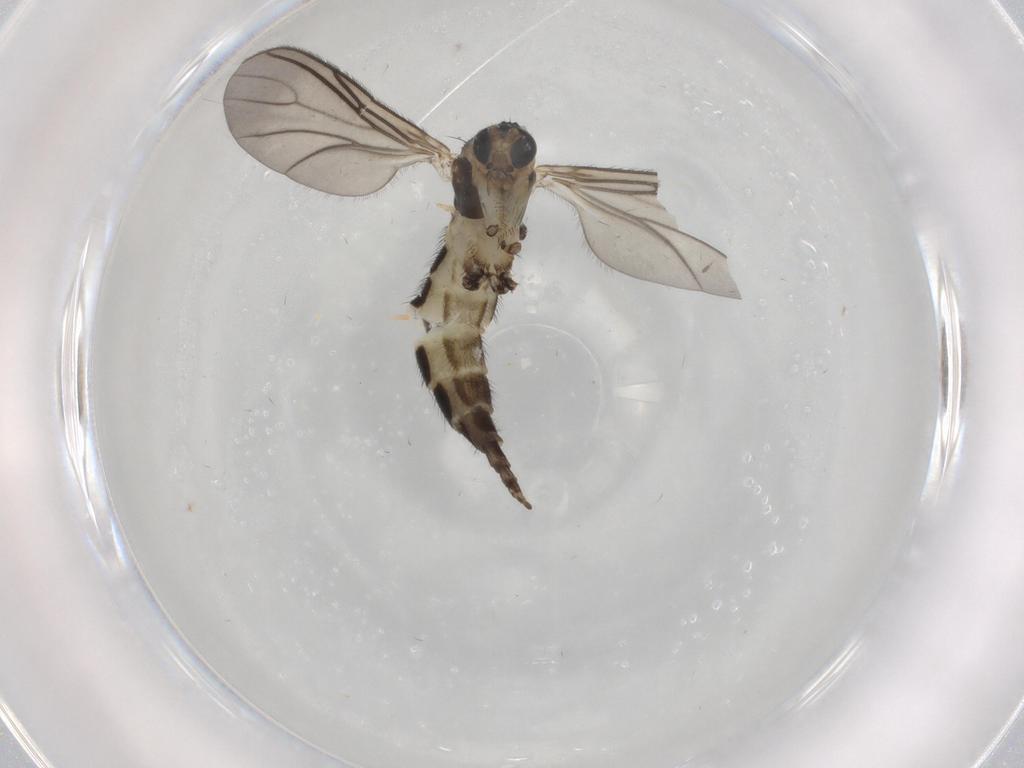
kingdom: Animalia
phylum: Arthropoda
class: Insecta
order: Diptera
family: Sciaridae
